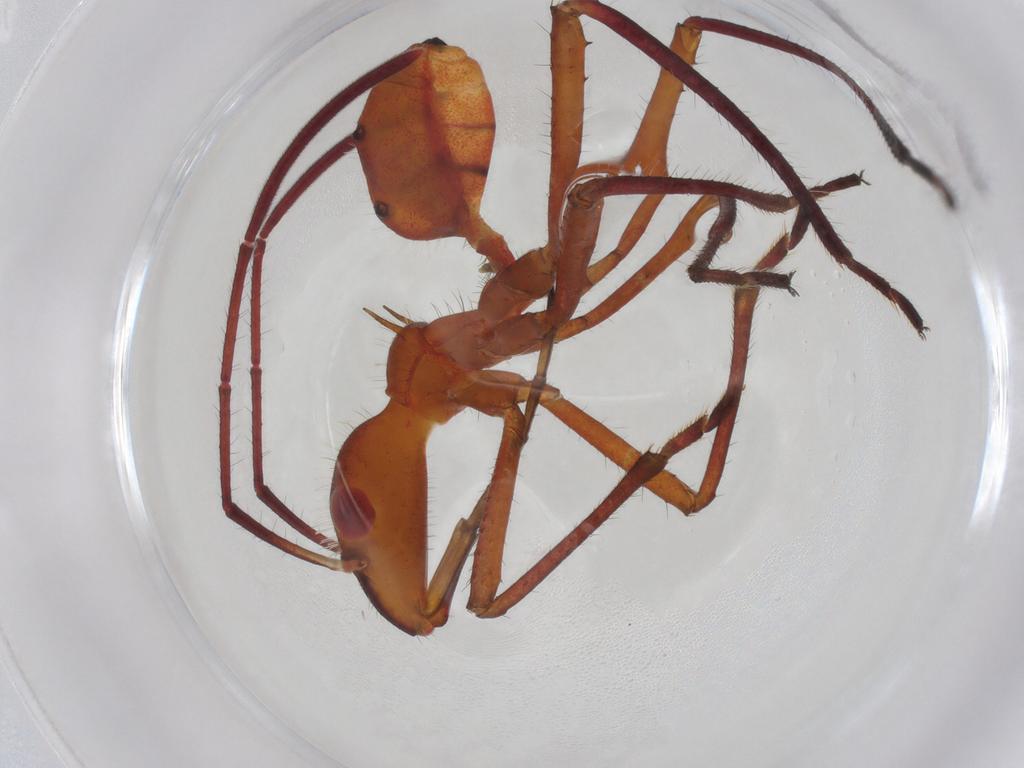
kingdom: Animalia
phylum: Arthropoda
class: Insecta
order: Hemiptera
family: Alydidae
